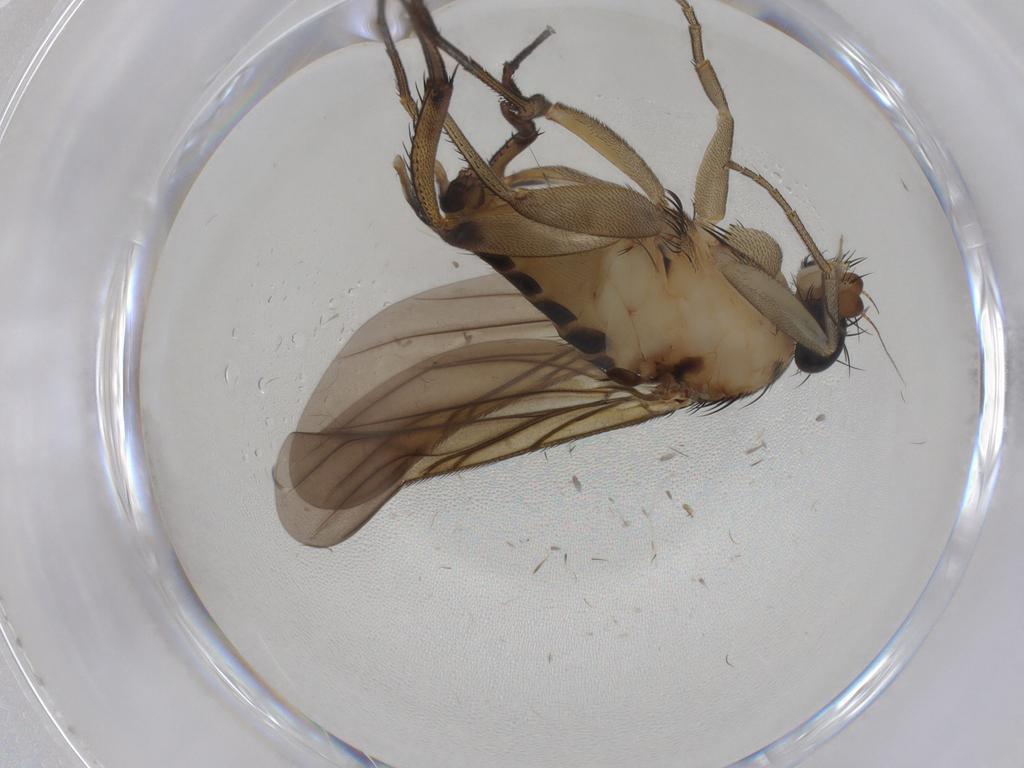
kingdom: Animalia
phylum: Arthropoda
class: Insecta
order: Diptera
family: Phoridae
